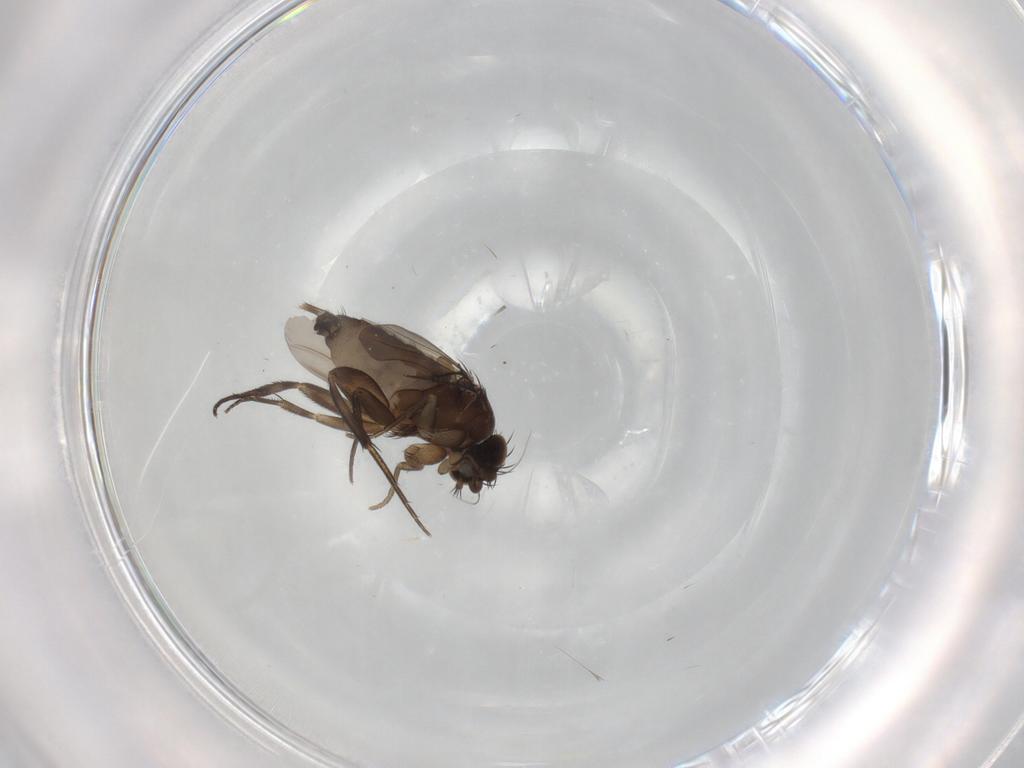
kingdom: Animalia
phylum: Arthropoda
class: Insecta
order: Diptera
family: Phoridae
